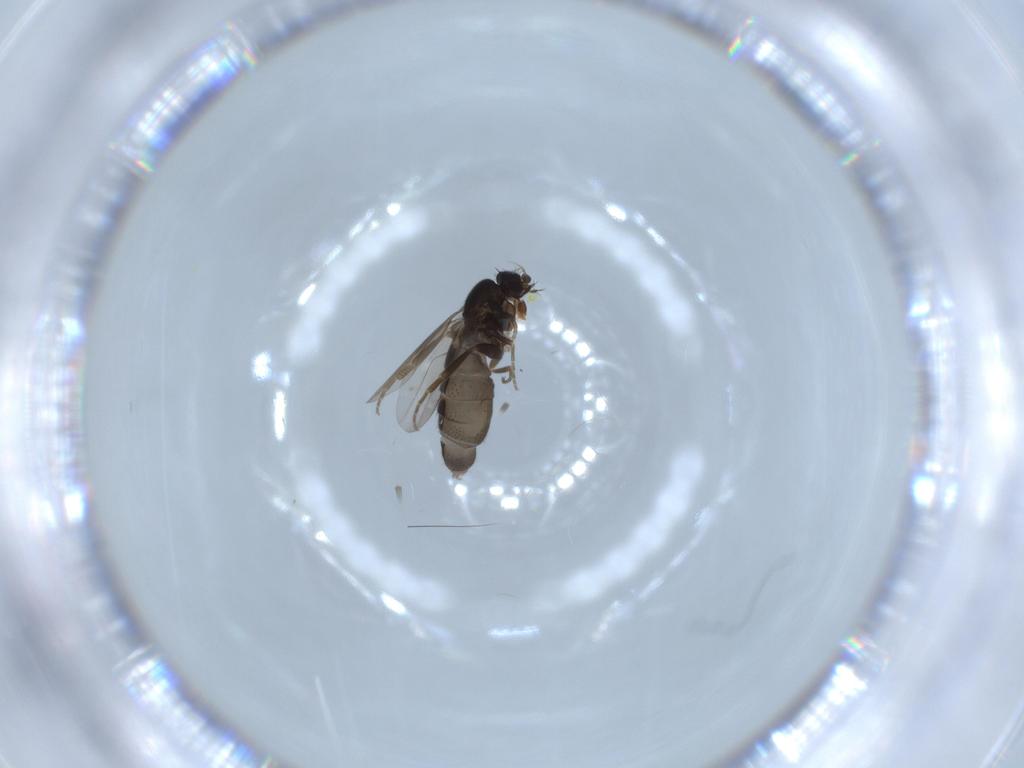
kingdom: Animalia
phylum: Arthropoda
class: Insecta
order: Diptera
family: Phoridae
